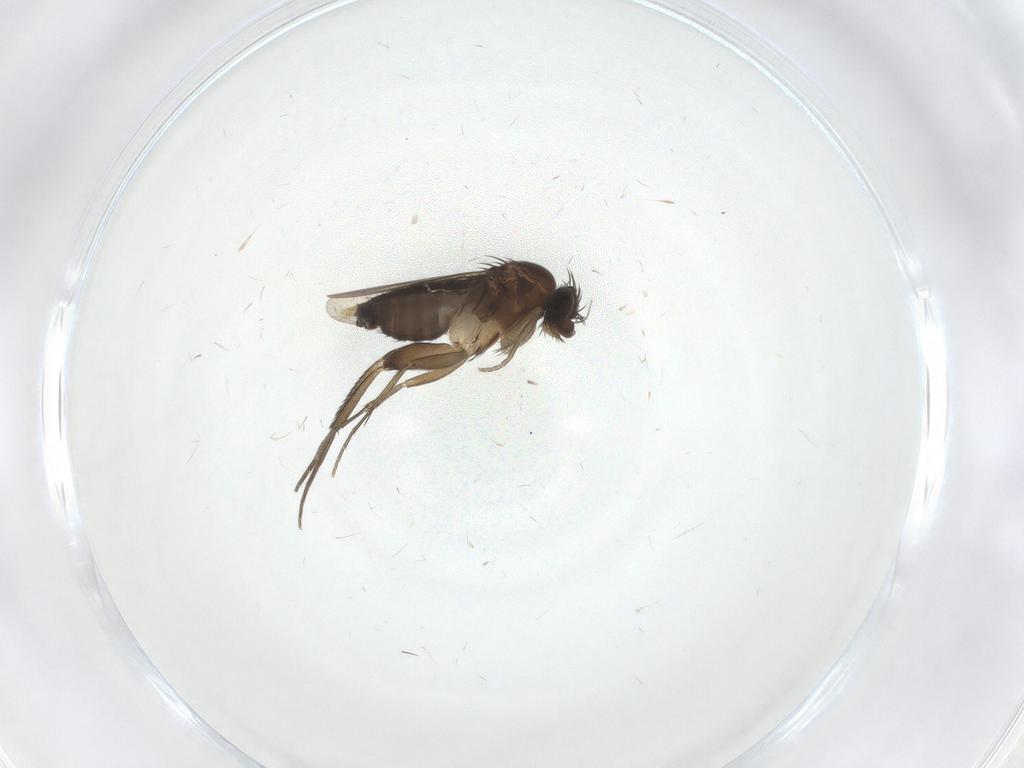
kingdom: Animalia
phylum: Arthropoda
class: Insecta
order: Diptera
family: Phoridae
